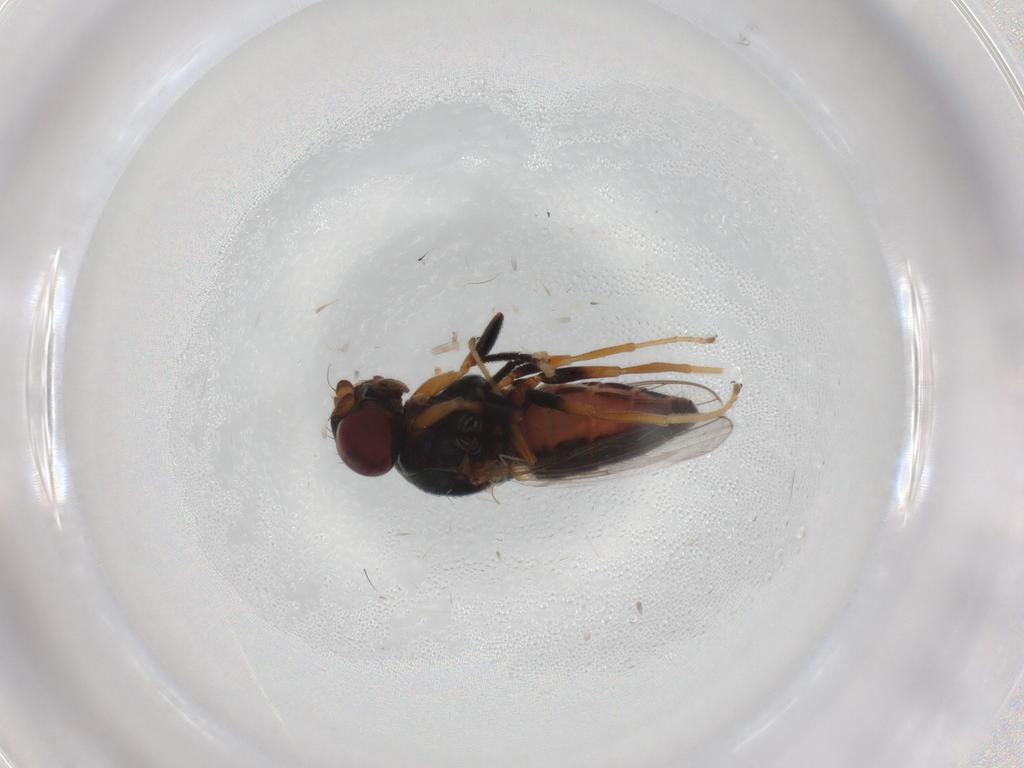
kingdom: Animalia
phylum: Arthropoda
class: Insecta
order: Diptera
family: Chloropidae
